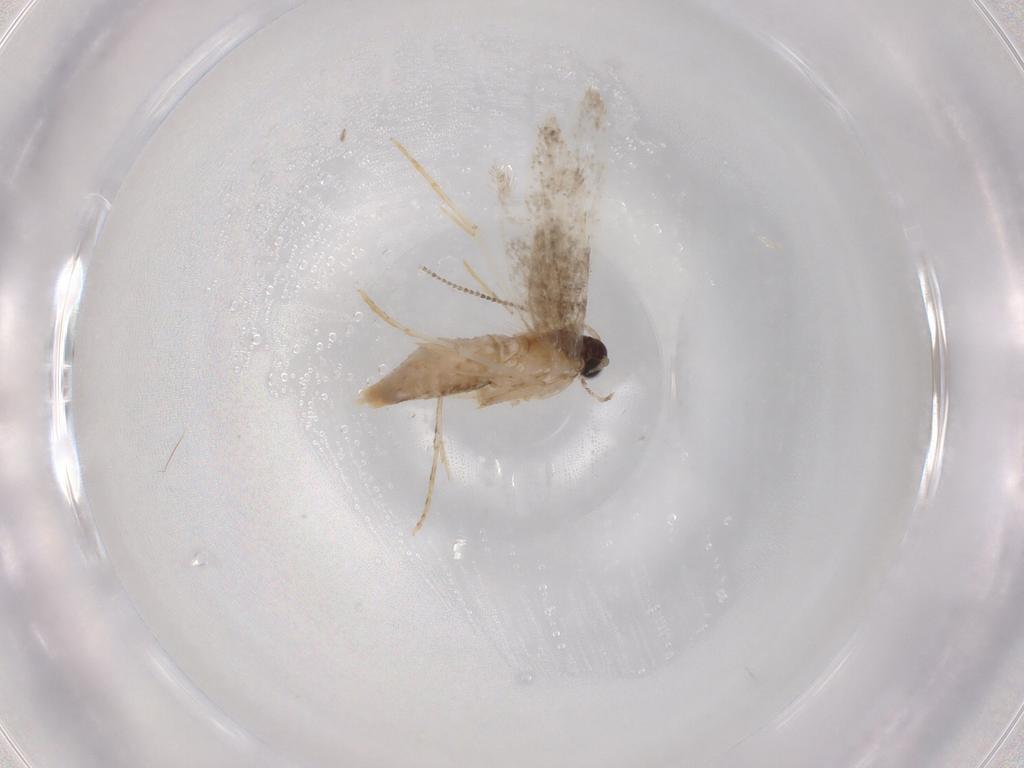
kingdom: Animalia
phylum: Arthropoda
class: Insecta
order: Lepidoptera
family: Tineidae
